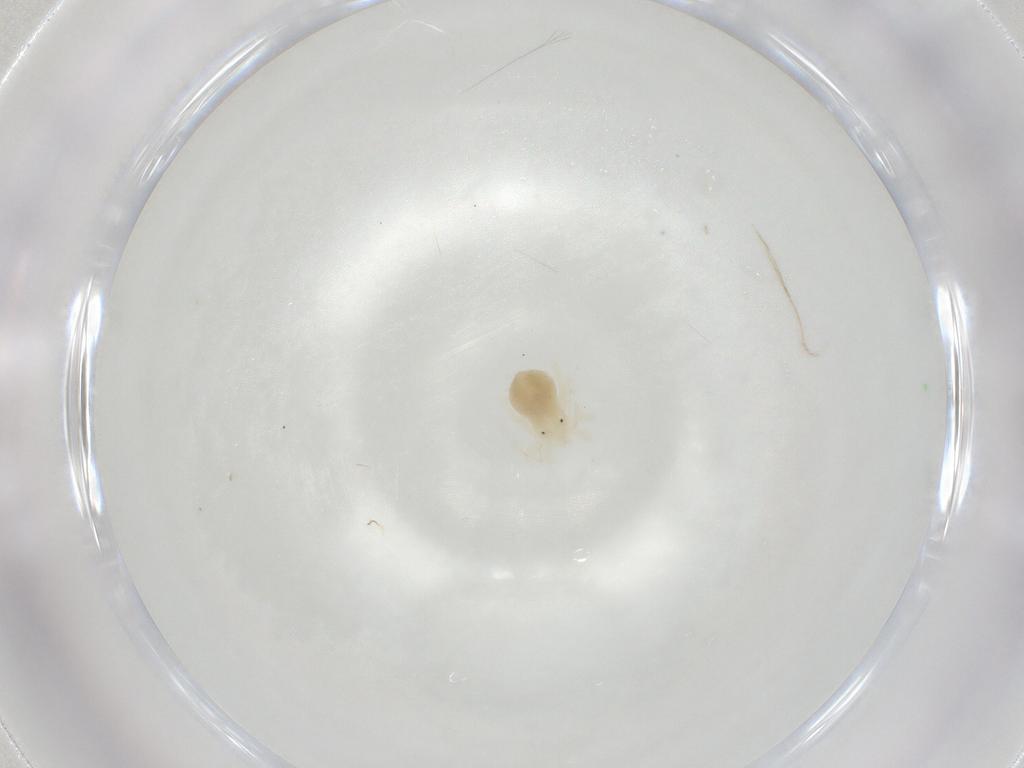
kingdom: Animalia
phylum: Arthropoda
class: Arachnida
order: Trombidiformes
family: Anystidae
